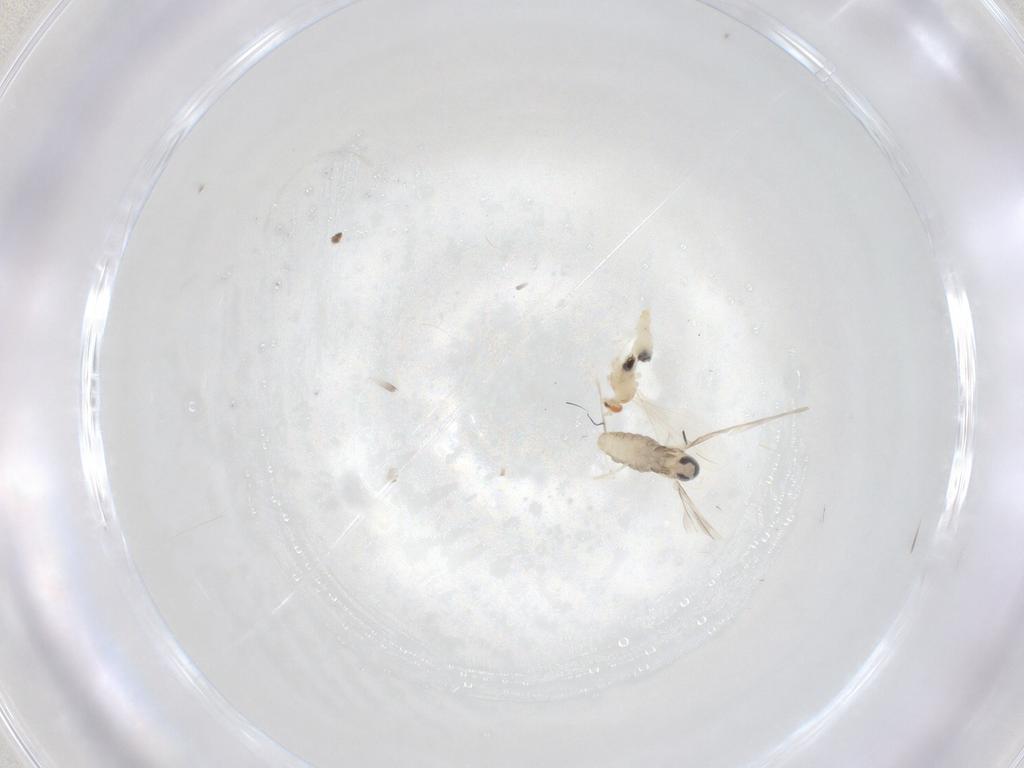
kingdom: Animalia
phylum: Arthropoda
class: Insecta
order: Diptera
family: Cecidomyiidae
